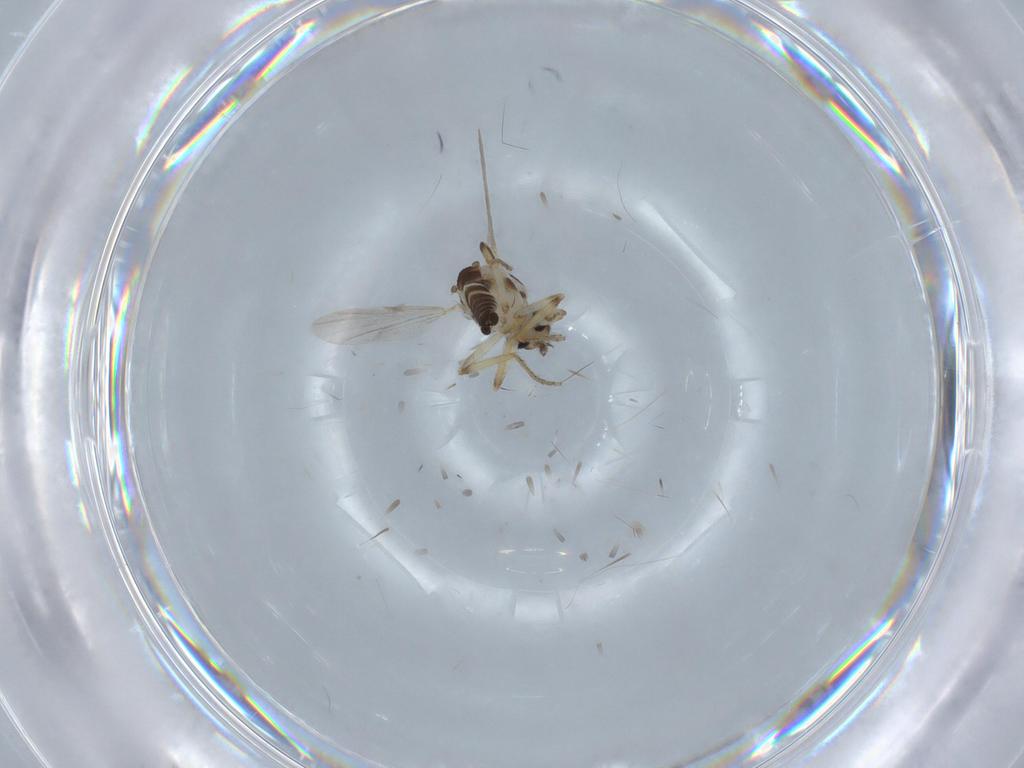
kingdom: Animalia
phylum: Arthropoda
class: Insecta
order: Diptera
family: Ceratopogonidae
